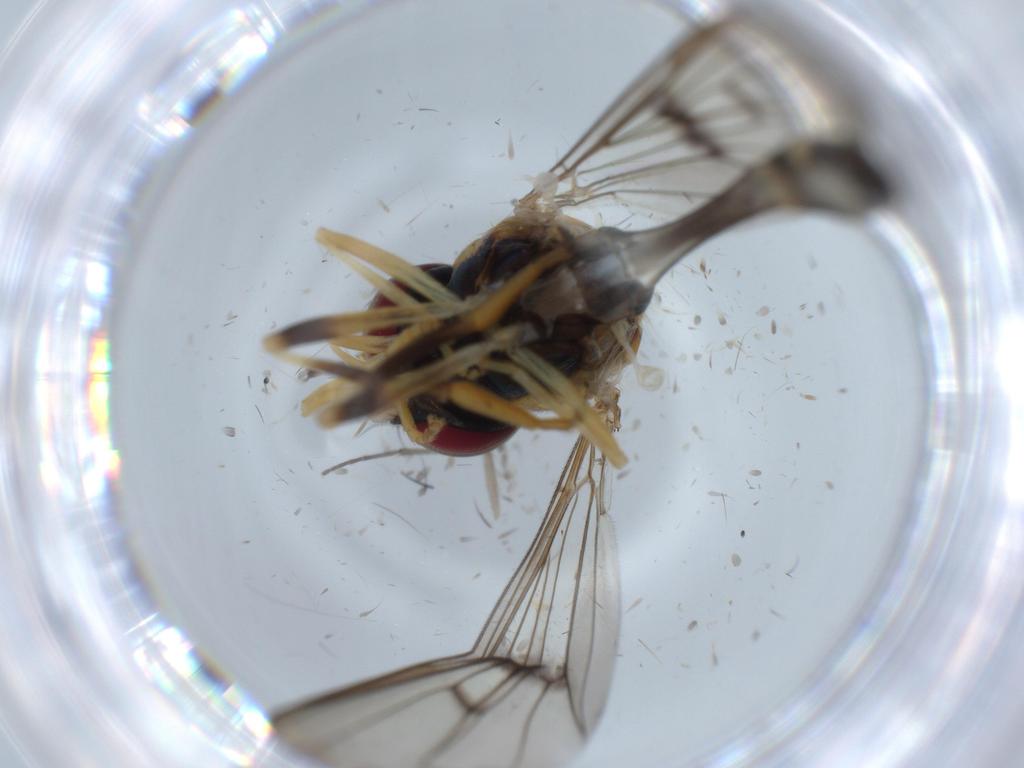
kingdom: Animalia
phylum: Arthropoda
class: Insecta
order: Diptera
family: Syrphidae
